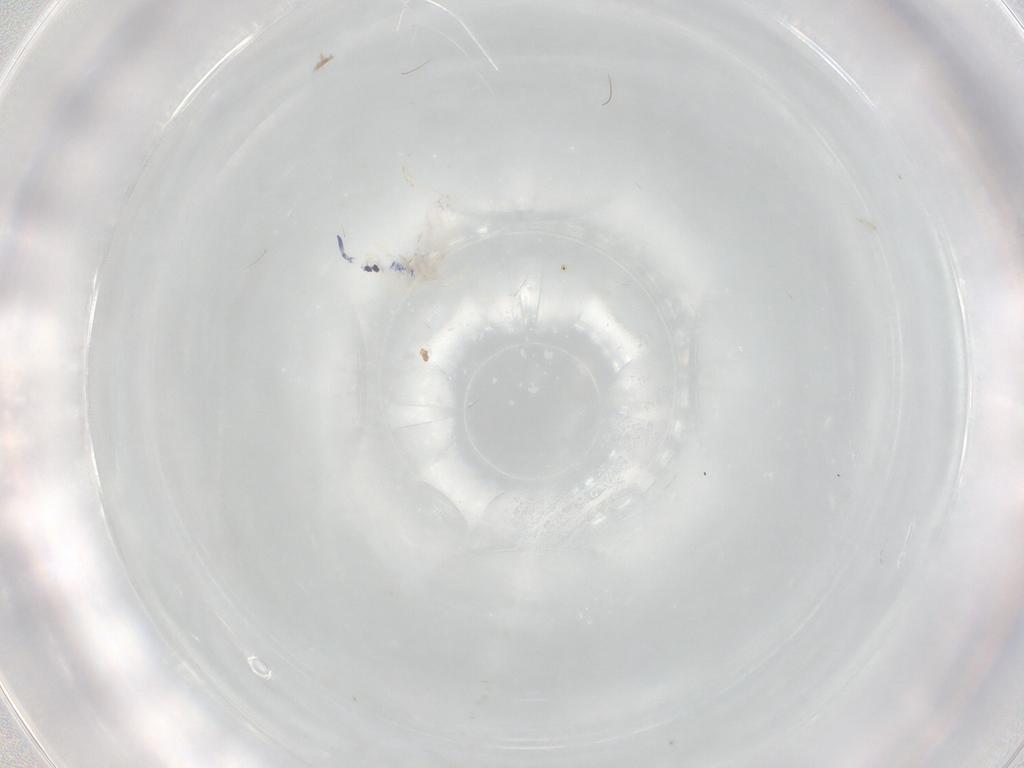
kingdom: Animalia
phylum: Arthropoda
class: Collembola
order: Entomobryomorpha
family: Entomobryidae
